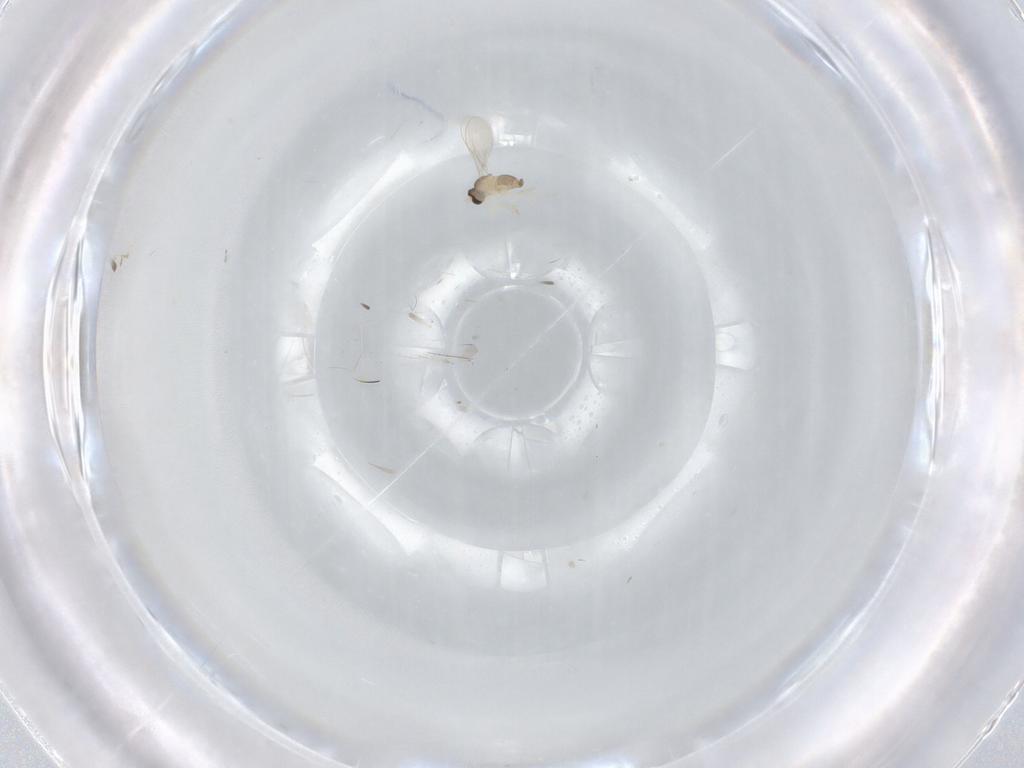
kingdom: Animalia
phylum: Arthropoda
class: Insecta
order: Diptera
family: Cecidomyiidae
